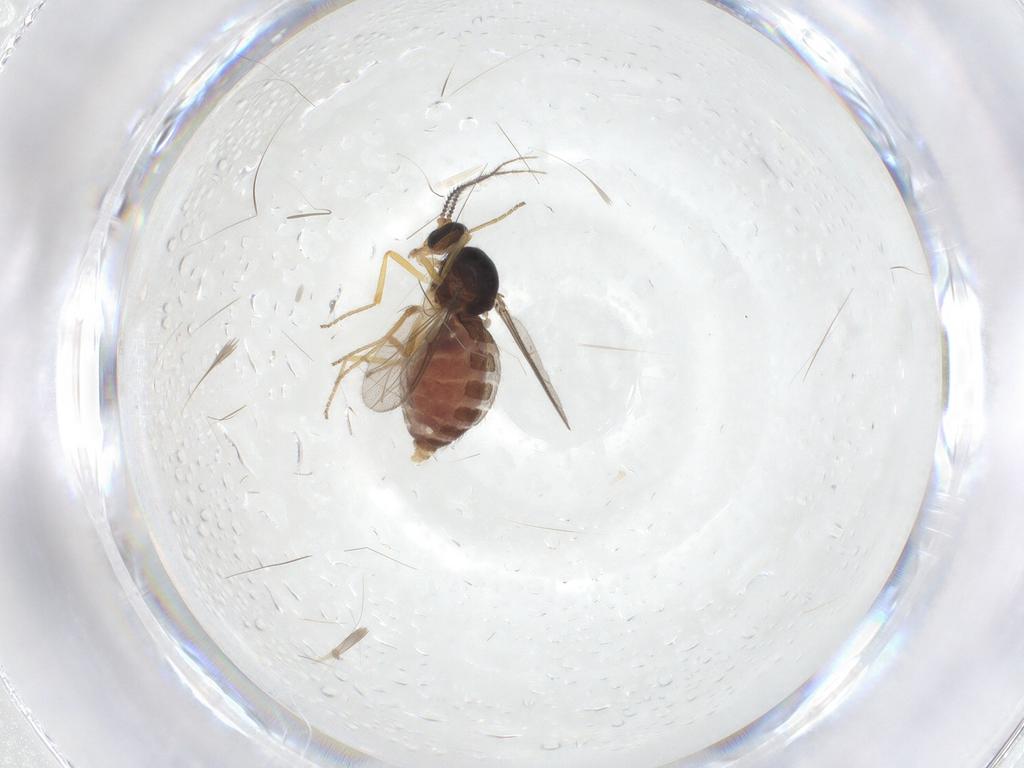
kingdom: Animalia
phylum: Arthropoda
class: Insecta
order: Diptera
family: Ceratopogonidae
